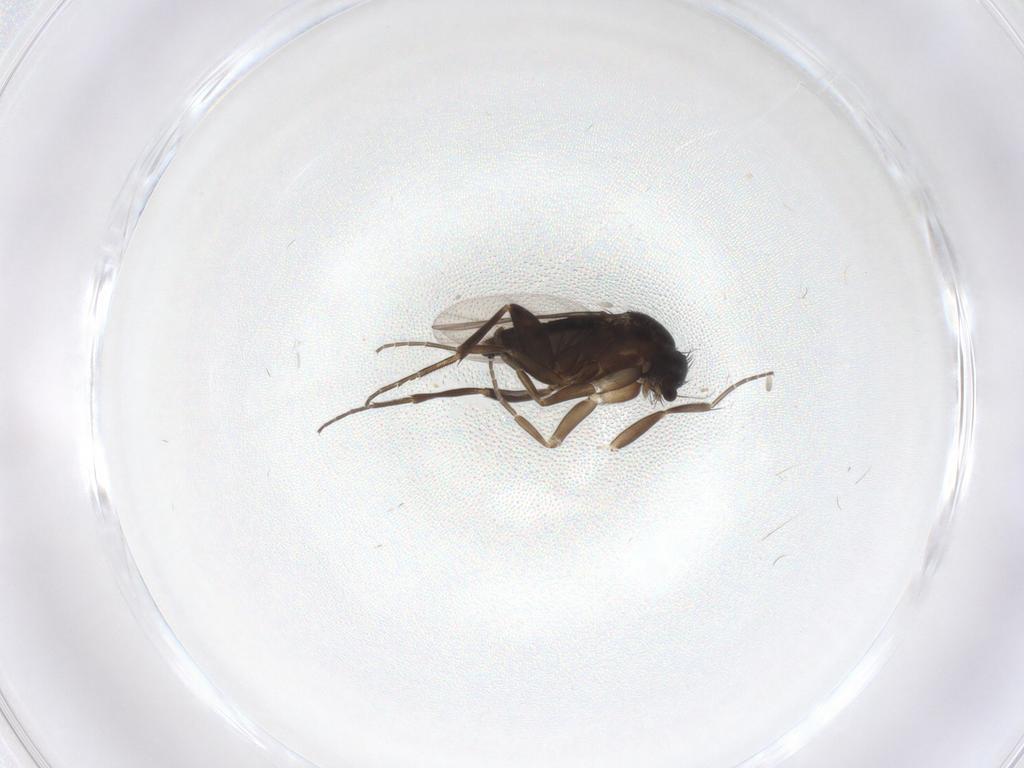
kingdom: Animalia
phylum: Arthropoda
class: Insecta
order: Diptera
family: Phoridae
